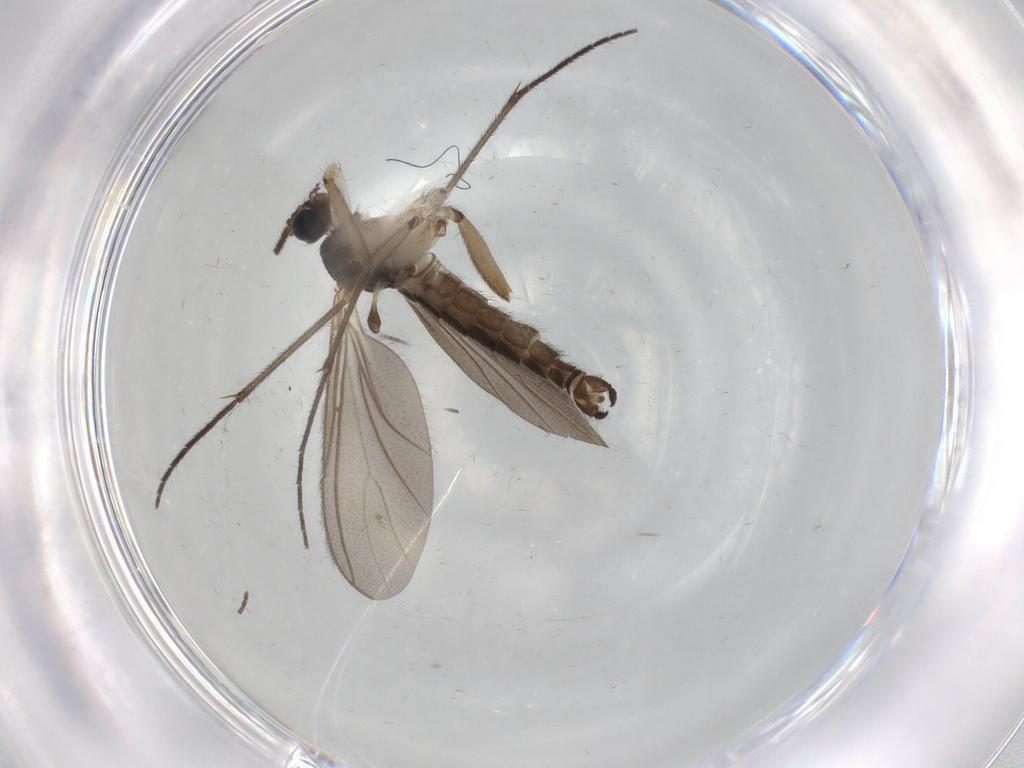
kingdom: Animalia
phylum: Arthropoda
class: Insecta
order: Diptera
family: Sciaridae
